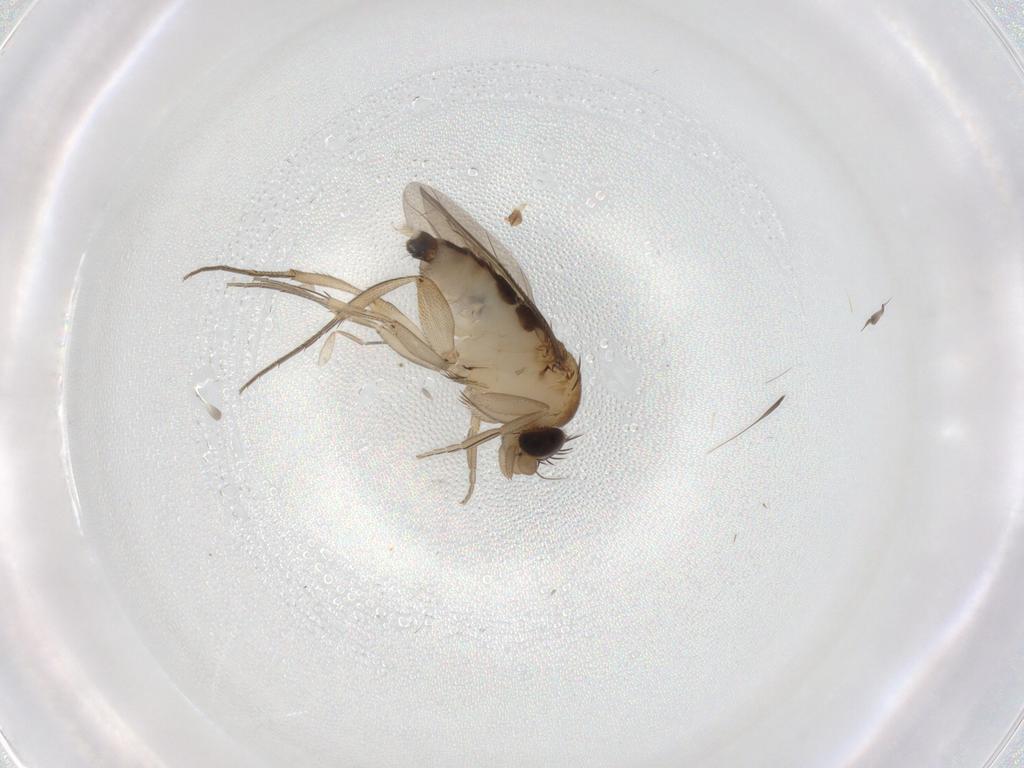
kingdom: Animalia
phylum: Arthropoda
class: Insecta
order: Diptera
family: Phoridae
